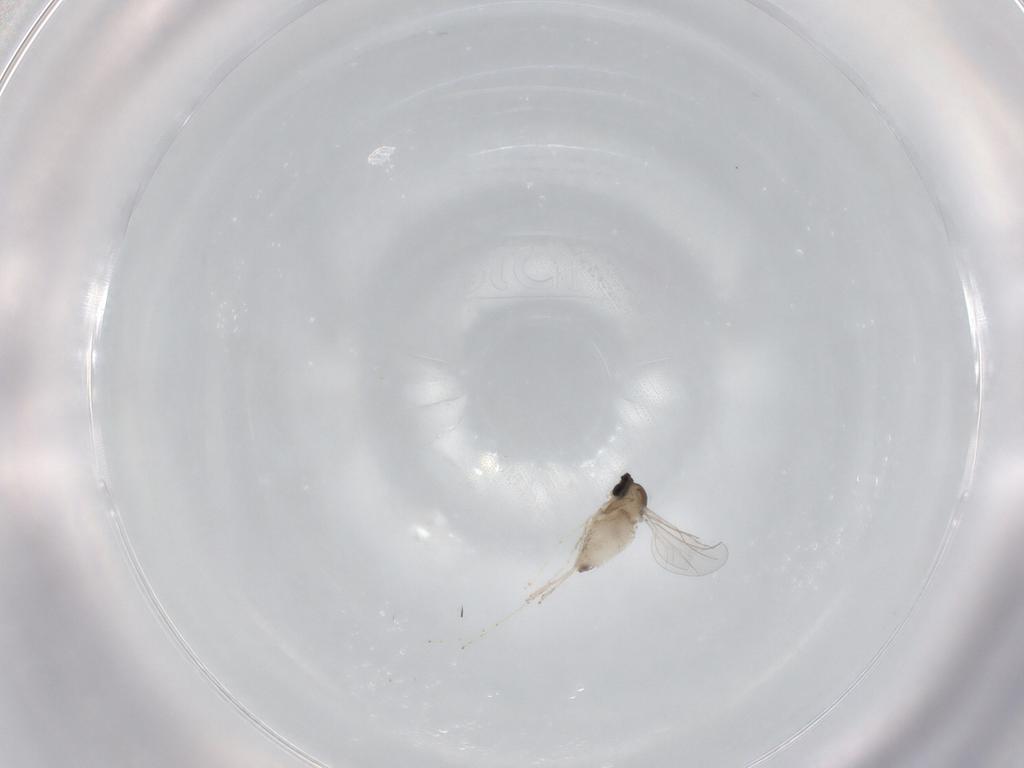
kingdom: Animalia
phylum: Arthropoda
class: Insecta
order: Diptera
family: Cecidomyiidae
